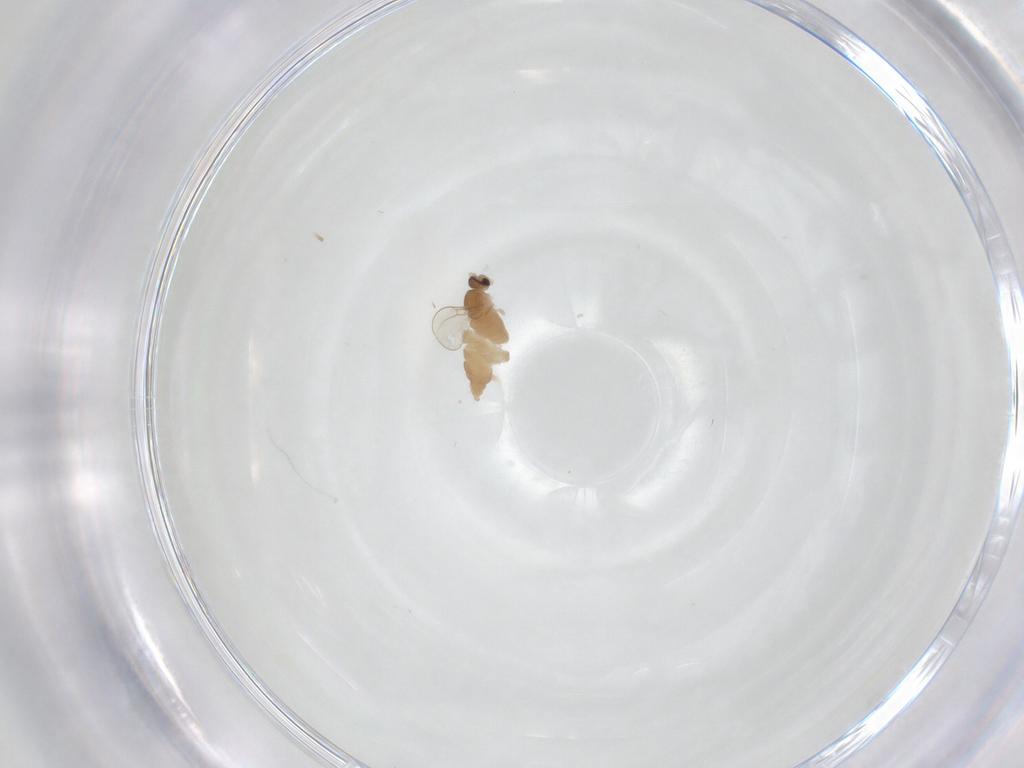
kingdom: Animalia
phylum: Arthropoda
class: Insecta
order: Diptera
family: Cecidomyiidae
